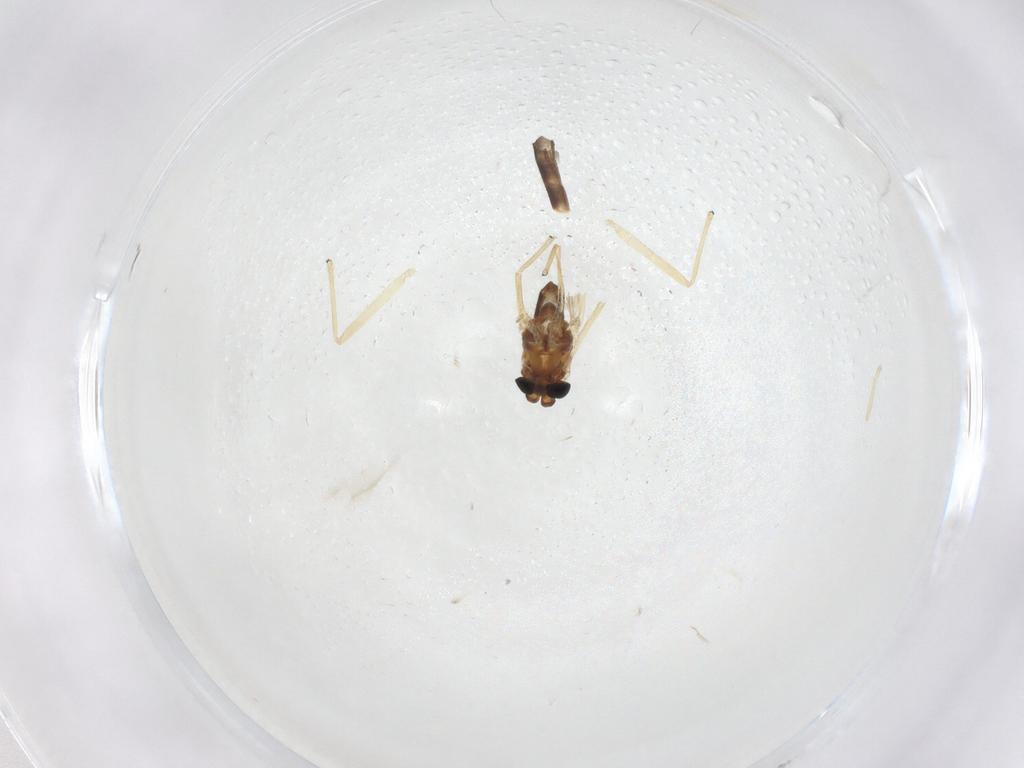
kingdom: Animalia
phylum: Arthropoda
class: Insecta
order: Diptera
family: Chironomidae
